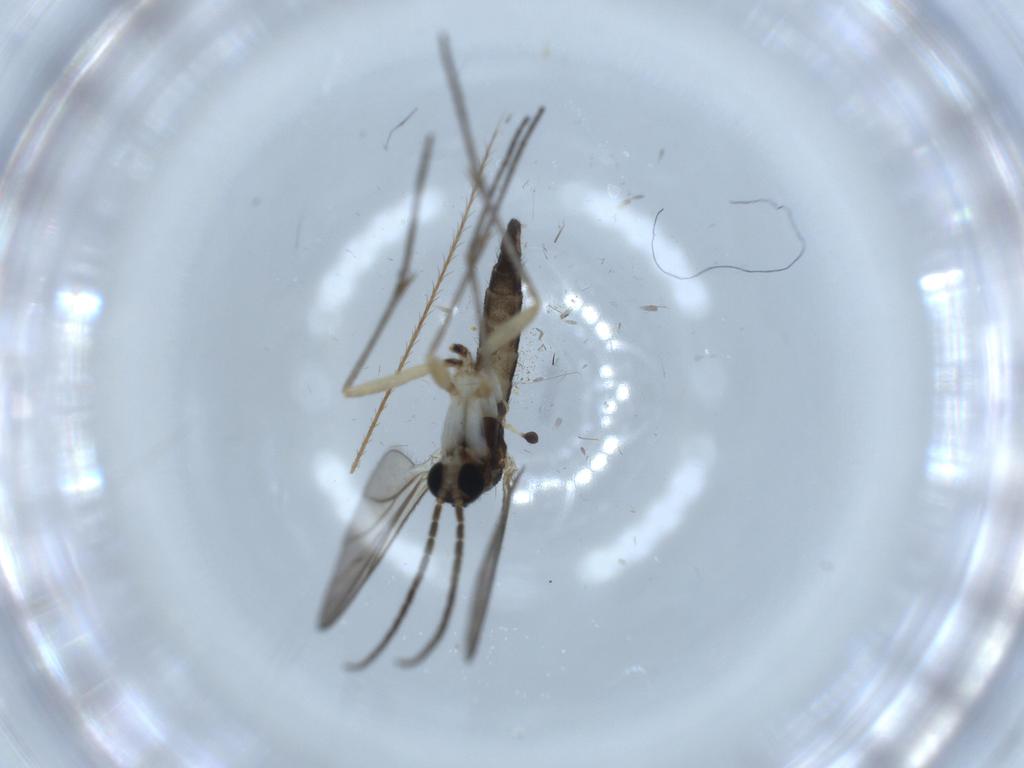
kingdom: Animalia
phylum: Arthropoda
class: Insecta
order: Diptera
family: Sciaridae
